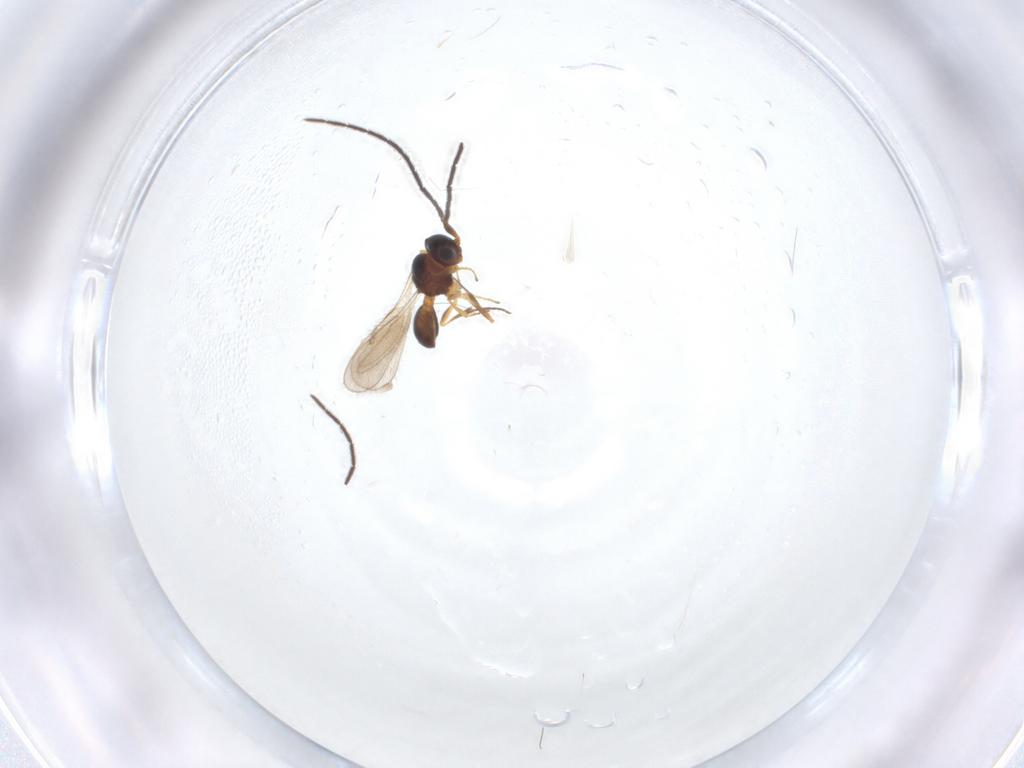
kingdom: Animalia
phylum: Arthropoda
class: Insecta
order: Hymenoptera
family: Scelionidae
